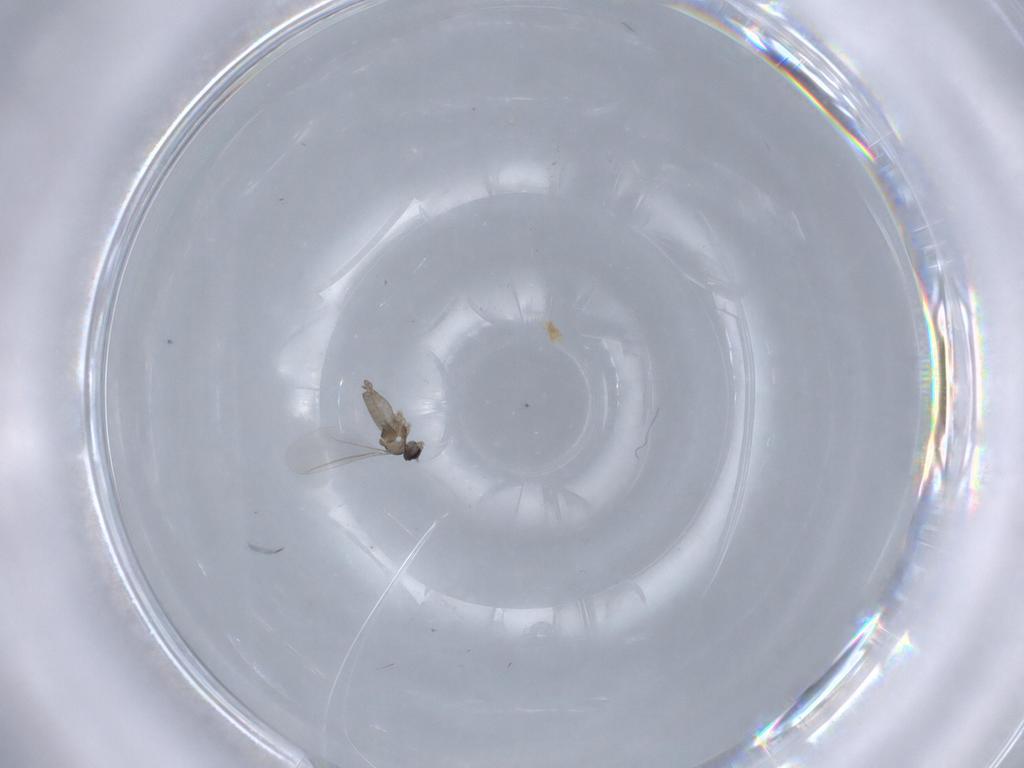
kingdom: Animalia
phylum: Arthropoda
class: Insecta
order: Diptera
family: Cecidomyiidae
